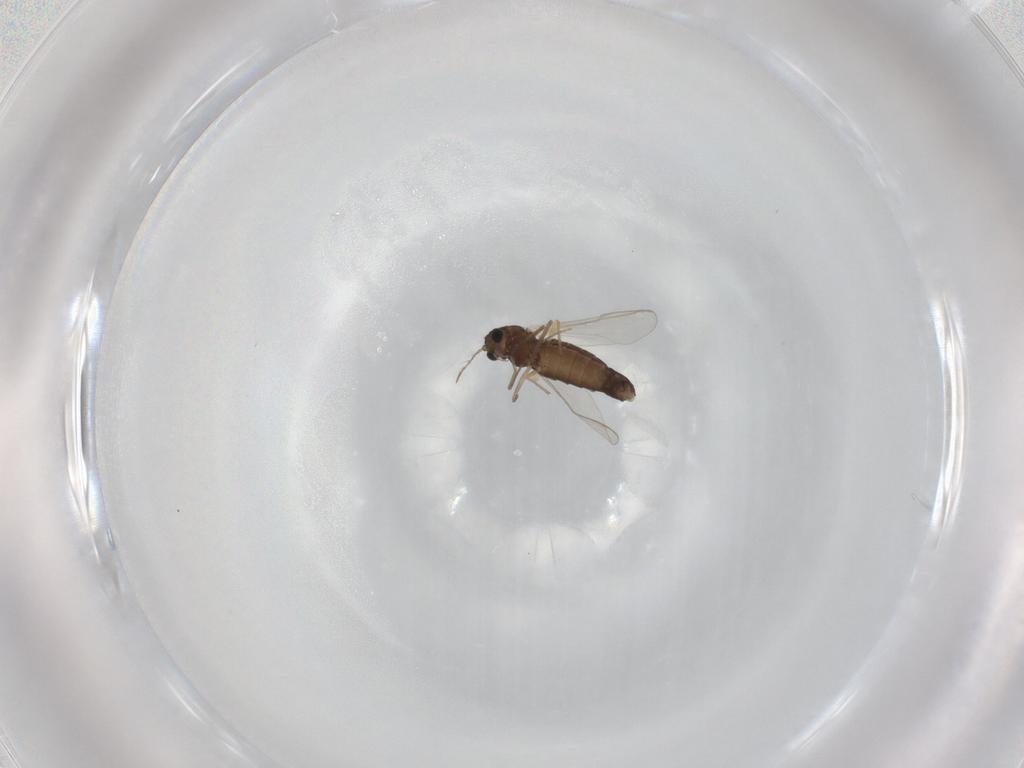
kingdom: Animalia
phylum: Arthropoda
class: Insecta
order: Diptera
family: Chironomidae
